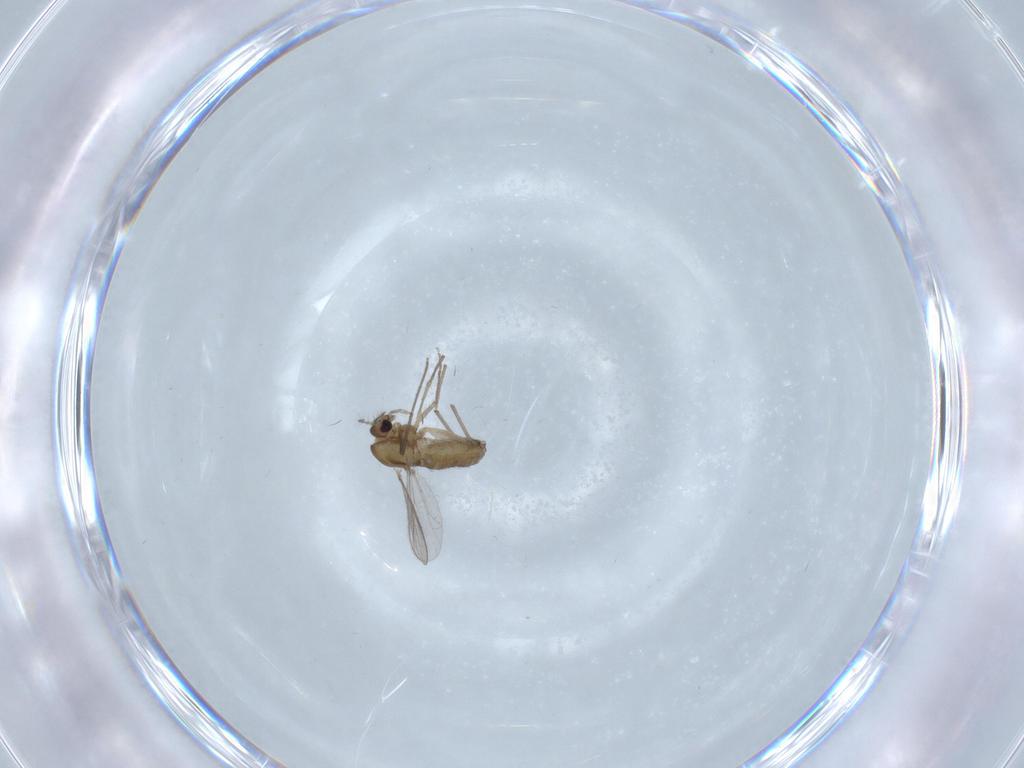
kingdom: Animalia
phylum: Arthropoda
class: Insecta
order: Diptera
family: Chironomidae
